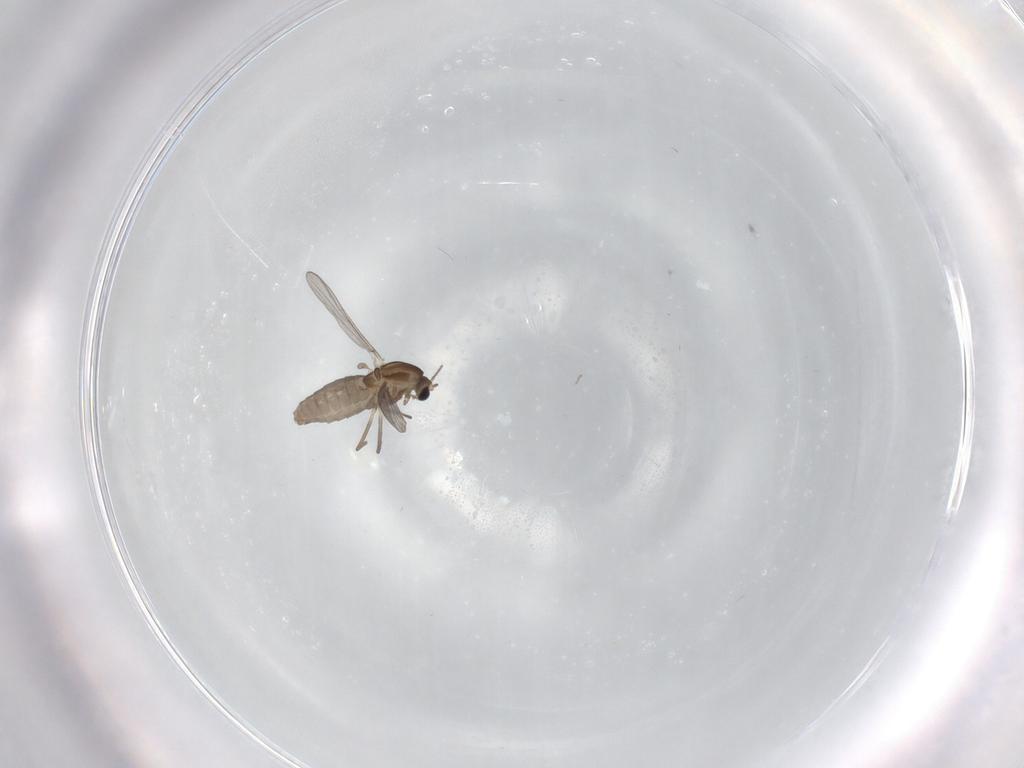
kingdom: Animalia
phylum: Arthropoda
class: Insecta
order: Diptera
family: Chironomidae
